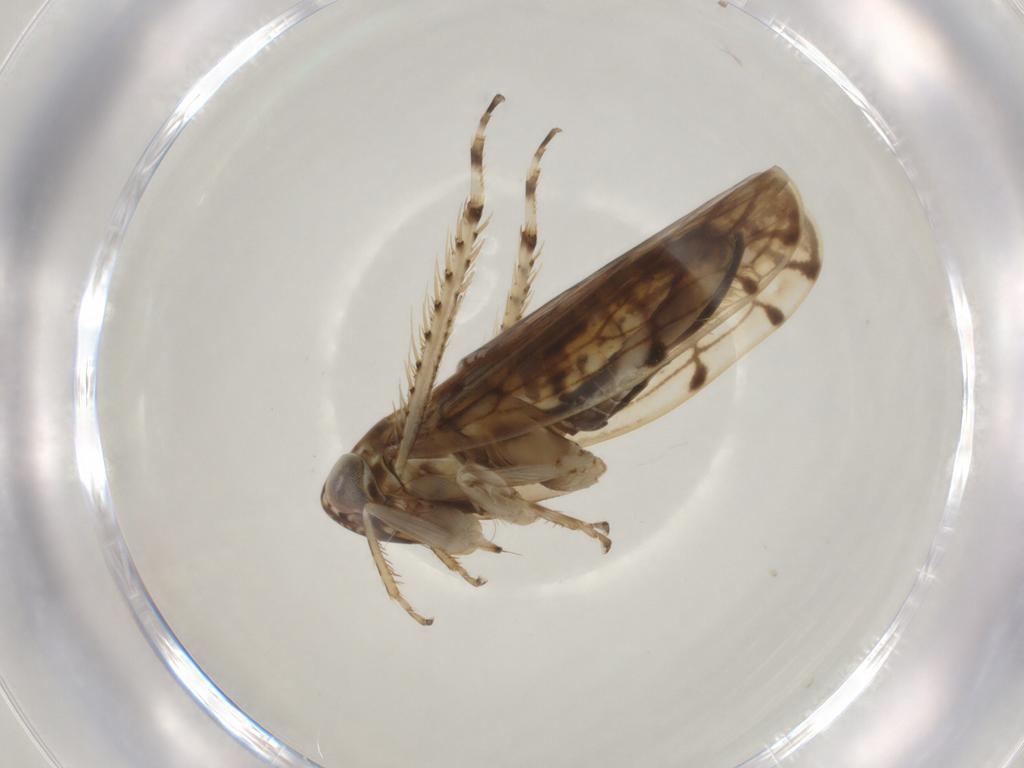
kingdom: Animalia
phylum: Arthropoda
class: Insecta
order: Hemiptera
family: Cicadellidae
